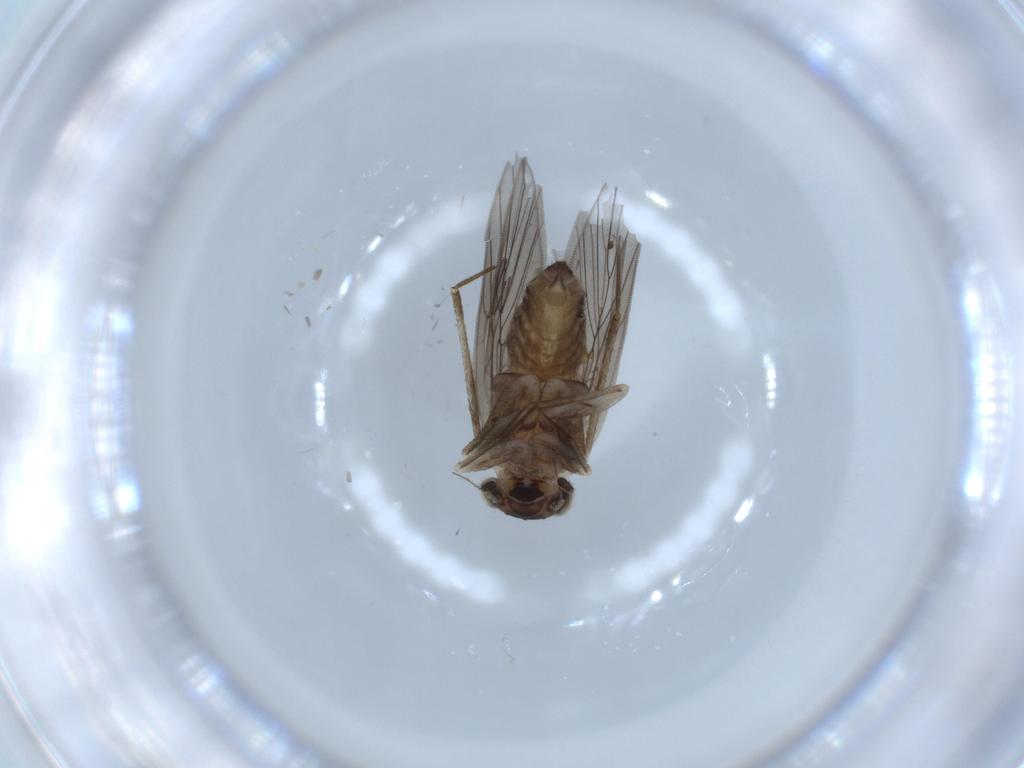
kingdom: Animalia
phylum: Arthropoda
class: Insecta
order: Psocodea
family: Lepidopsocidae
